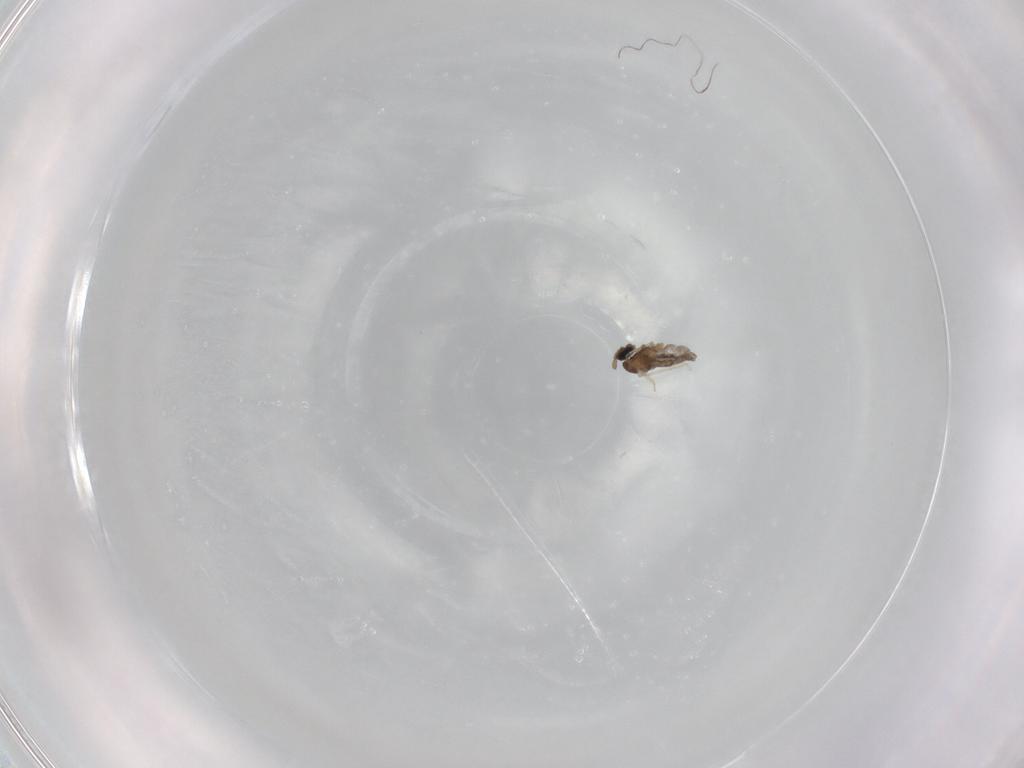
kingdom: Animalia
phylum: Arthropoda
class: Insecta
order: Diptera
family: Cecidomyiidae
